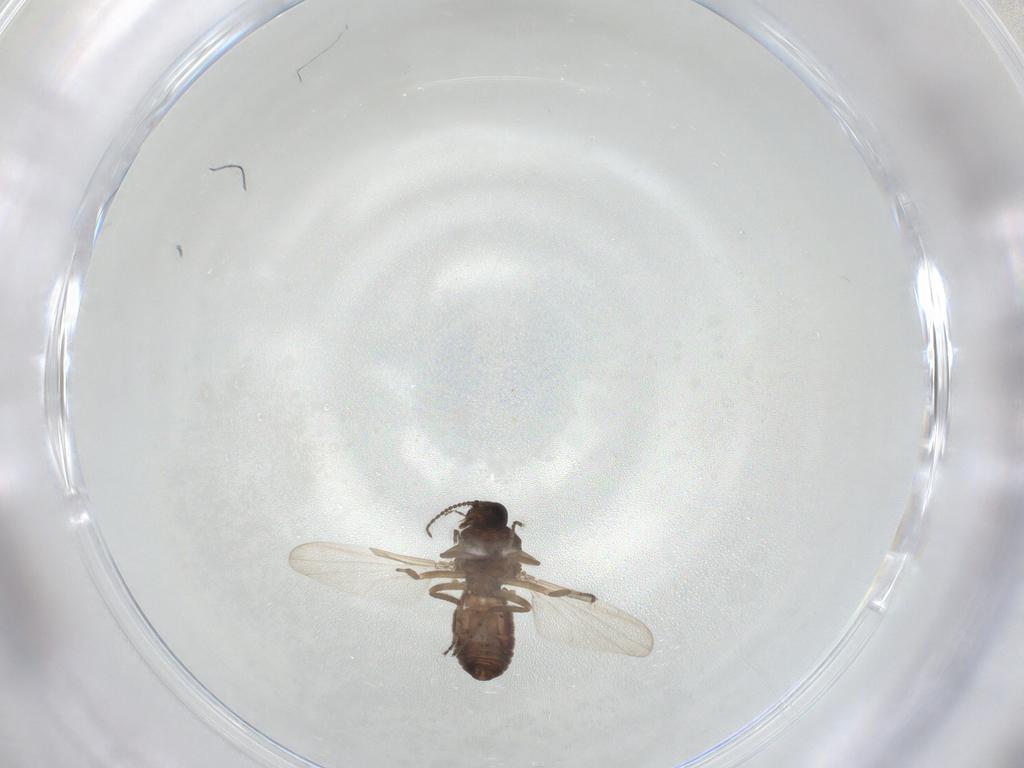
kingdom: Animalia
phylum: Arthropoda
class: Insecta
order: Diptera
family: Ceratopogonidae
